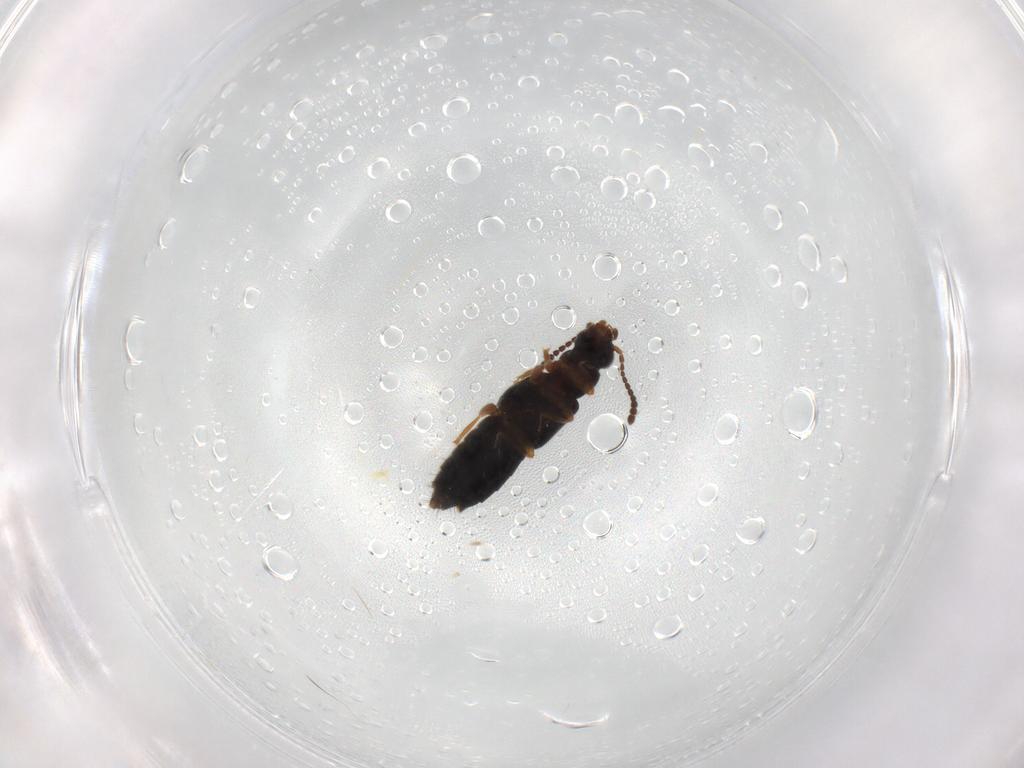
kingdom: Animalia
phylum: Arthropoda
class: Insecta
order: Coleoptera
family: Staphylinidae
